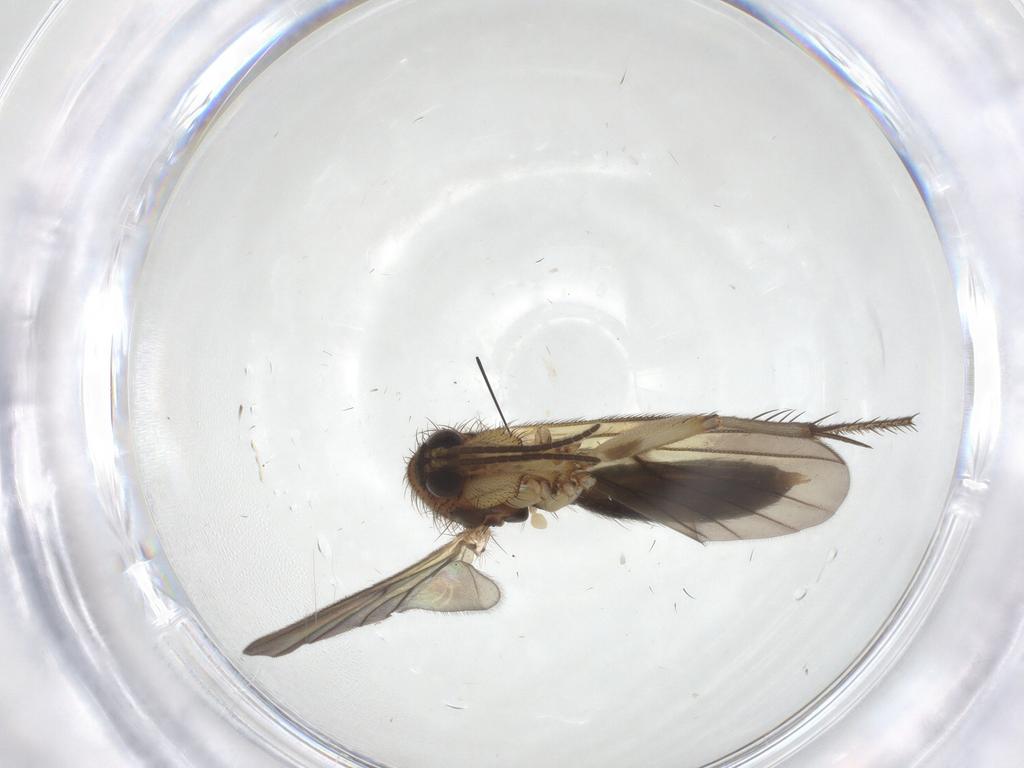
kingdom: Animalia
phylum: Arthropoda
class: Insecta
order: Diptera
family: Mycetophilidae
